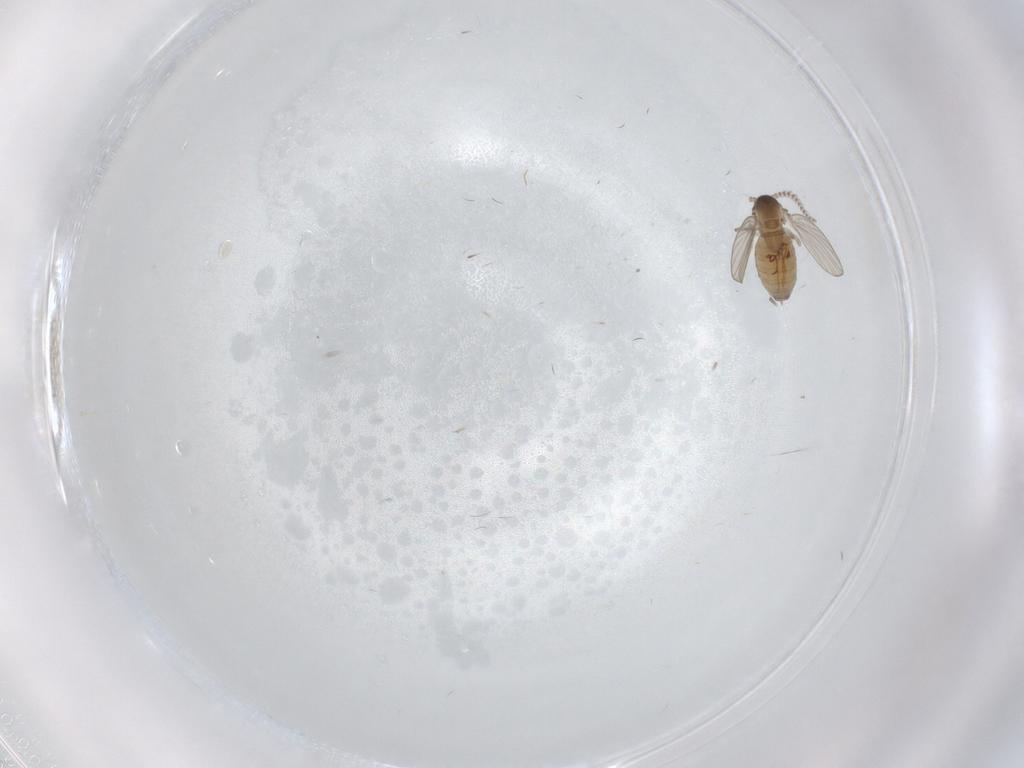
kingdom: Animalia
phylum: Arthropoda
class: Insecta
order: Diptera
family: Psychodidae
